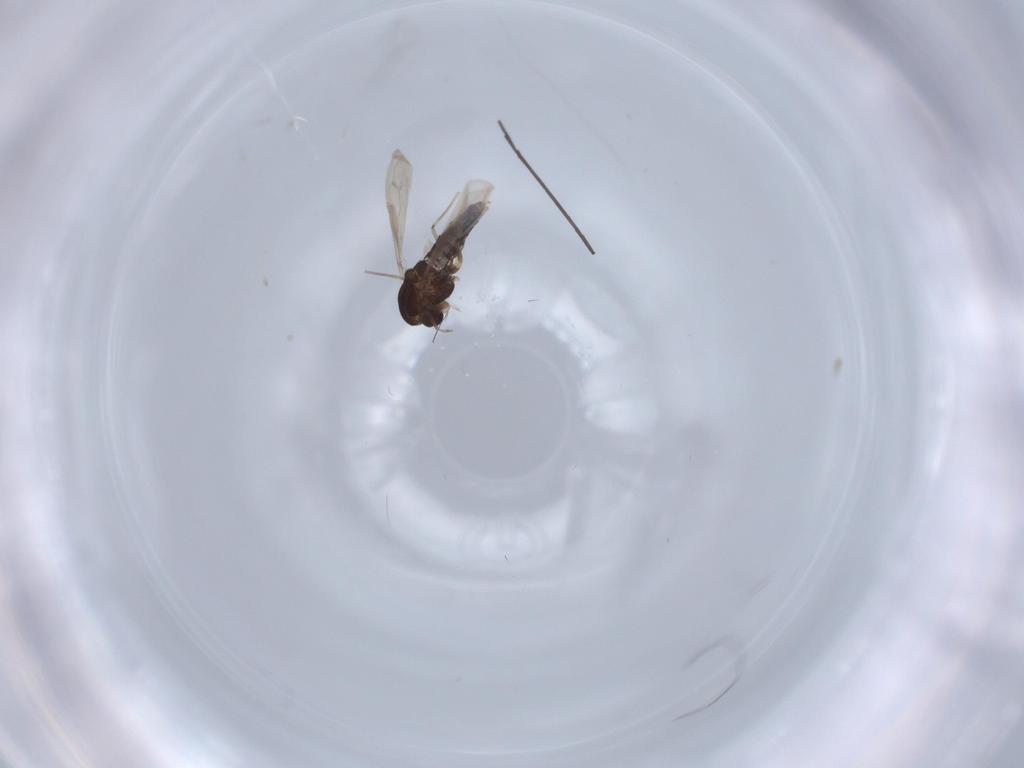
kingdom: Animalia
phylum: Arthropoda
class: Insecta
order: Diptera
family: Chironomidae
